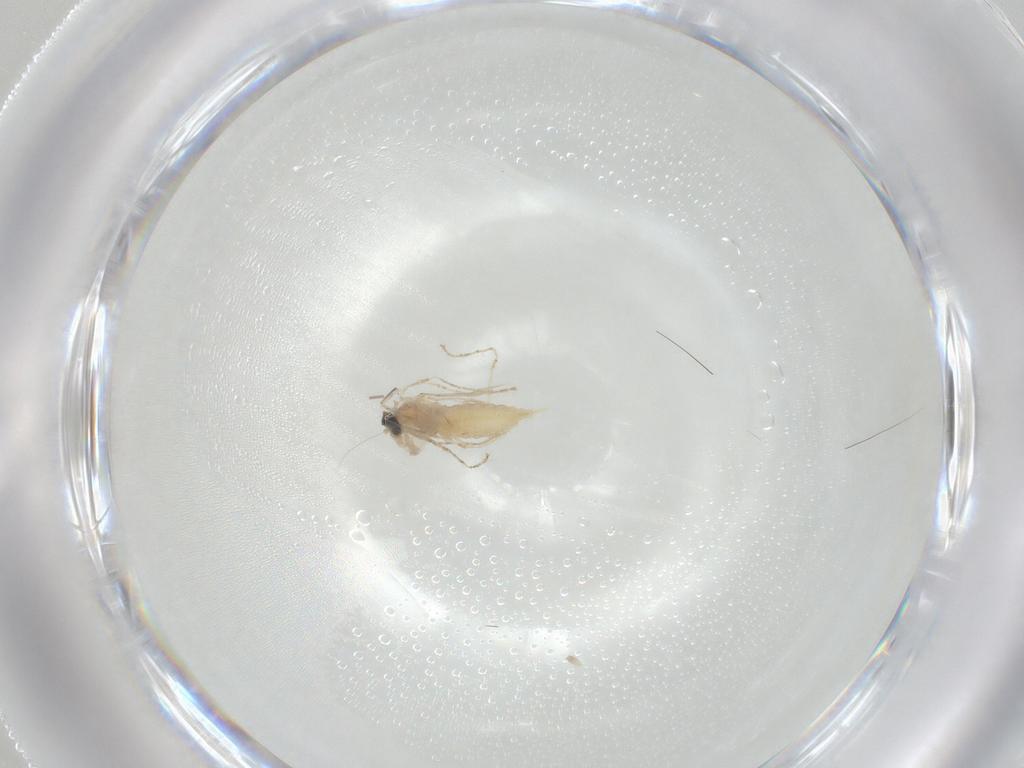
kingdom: Animalia
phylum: Arthropoda
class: Insecta
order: Diptera
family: Cecidomyiidae
